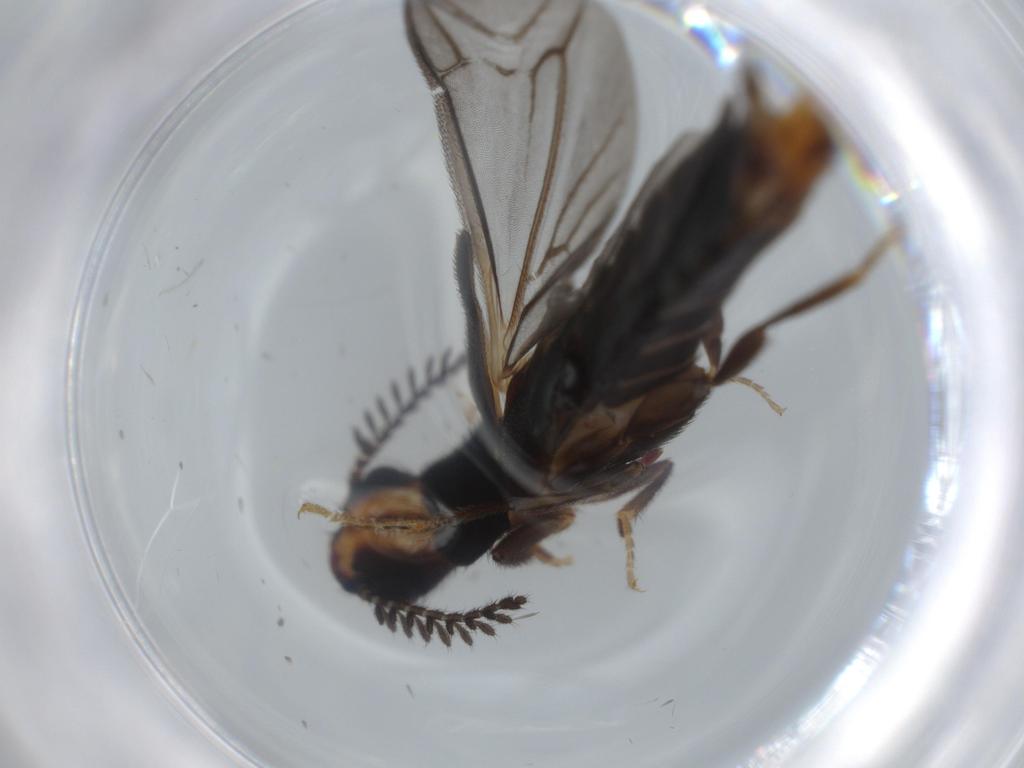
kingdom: Animalia
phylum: Arthropoda
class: Insecta
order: Coleoptera
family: Phengodidae
